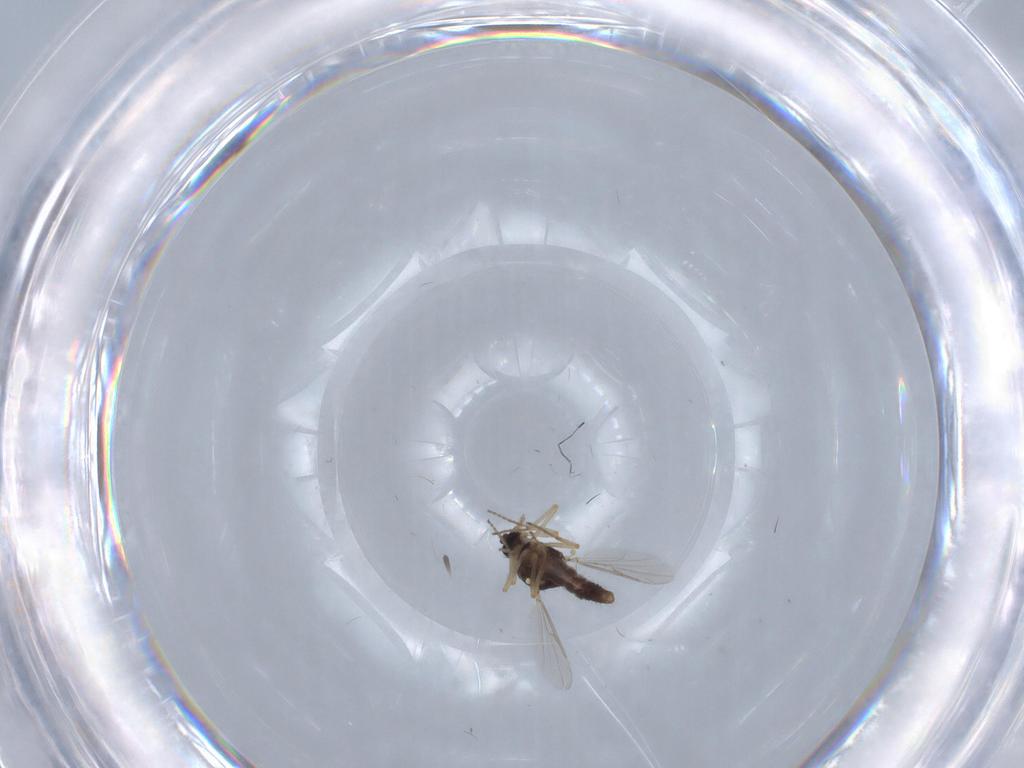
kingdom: Animalia
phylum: Arthropoda
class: Insecta
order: Diptera
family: Ceratopogonidae
